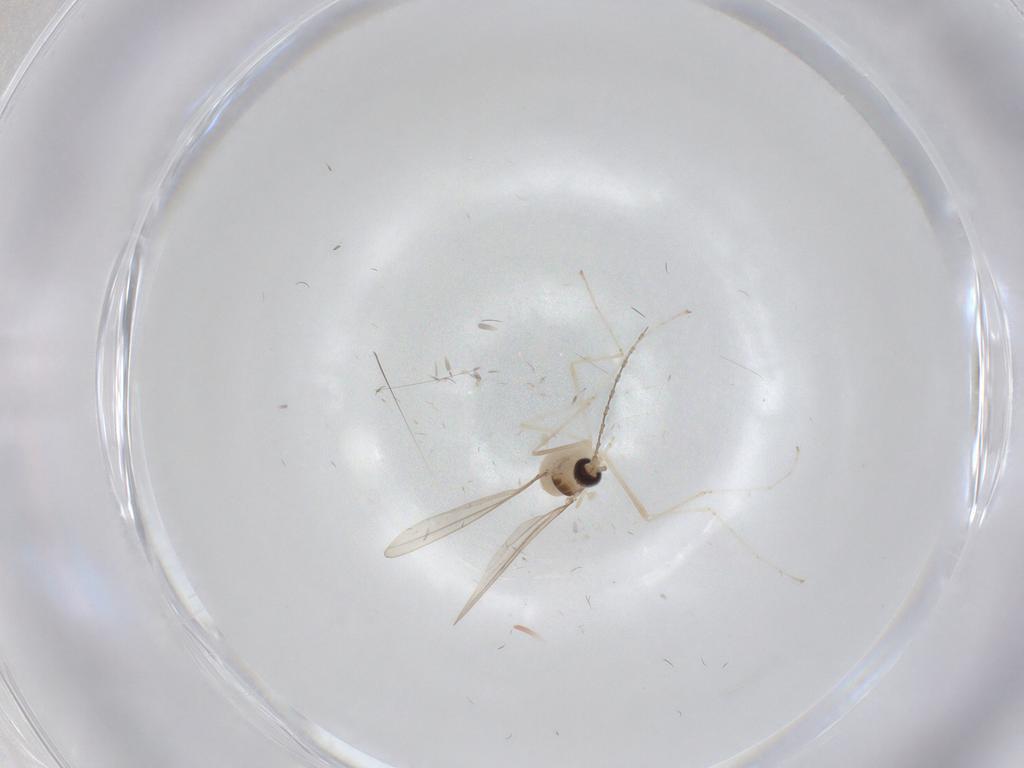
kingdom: Animalia
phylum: Arthropoda
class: Insecta
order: Diptera
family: Cecidomyiidae
